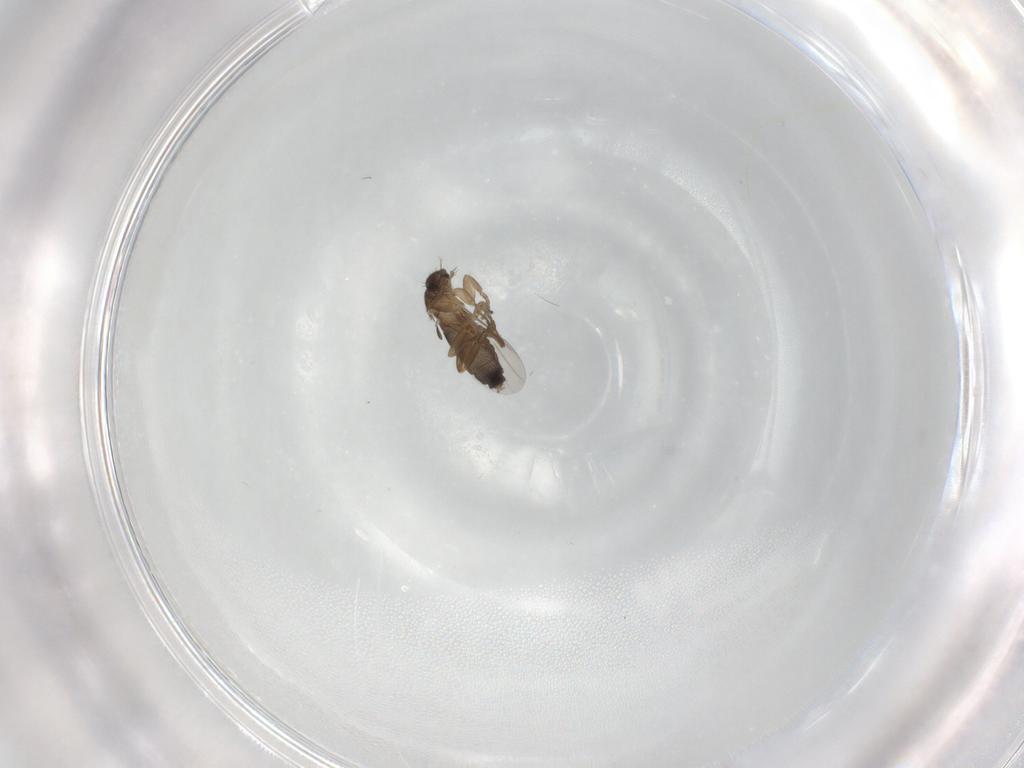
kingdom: Animalia
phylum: Arthropoda
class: Insecta
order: Diptera
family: Phoridae
